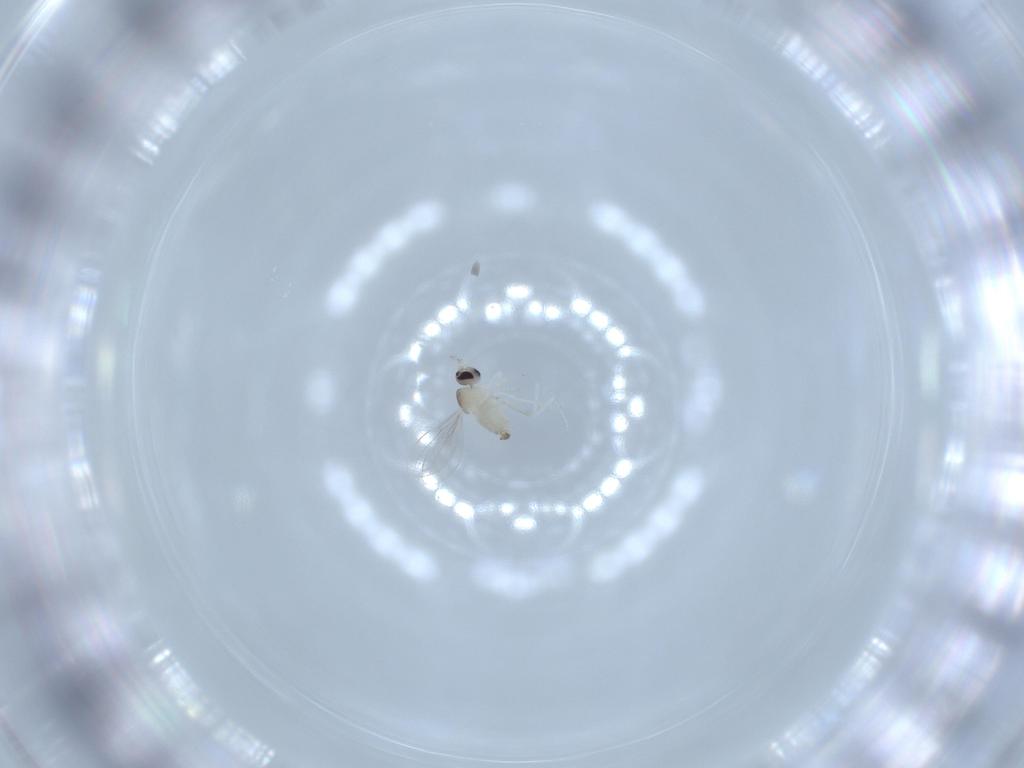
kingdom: Animalia
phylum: Arthropoda
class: Insecta
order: Diptera
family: Cecidomyiidae
